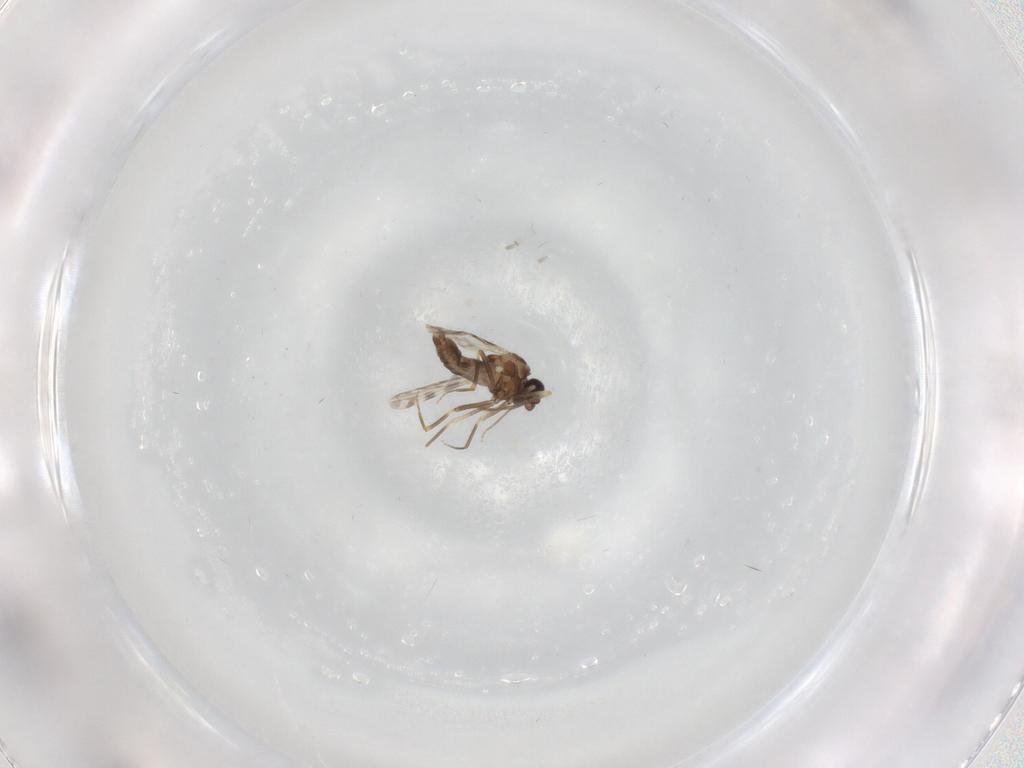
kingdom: Animalia
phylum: Arthropoda
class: Insecta
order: Diptera
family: Ceratopogonidae
